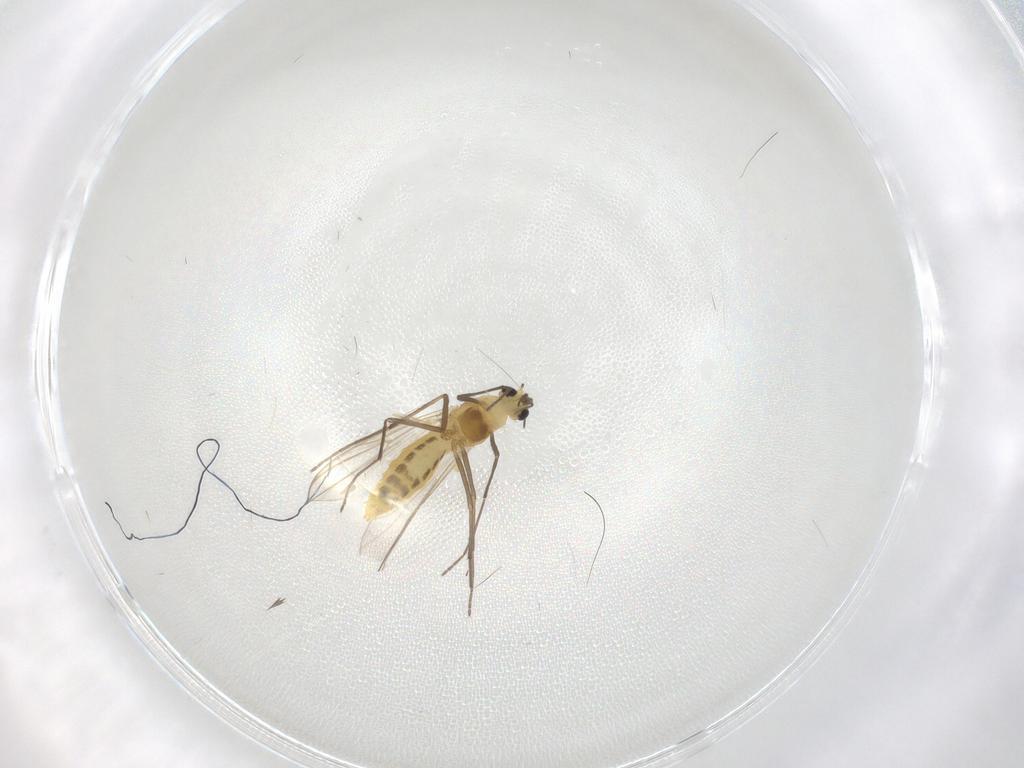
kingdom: Animalia
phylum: Arthropoda
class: Insecta
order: Diptera
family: Chironomidae
